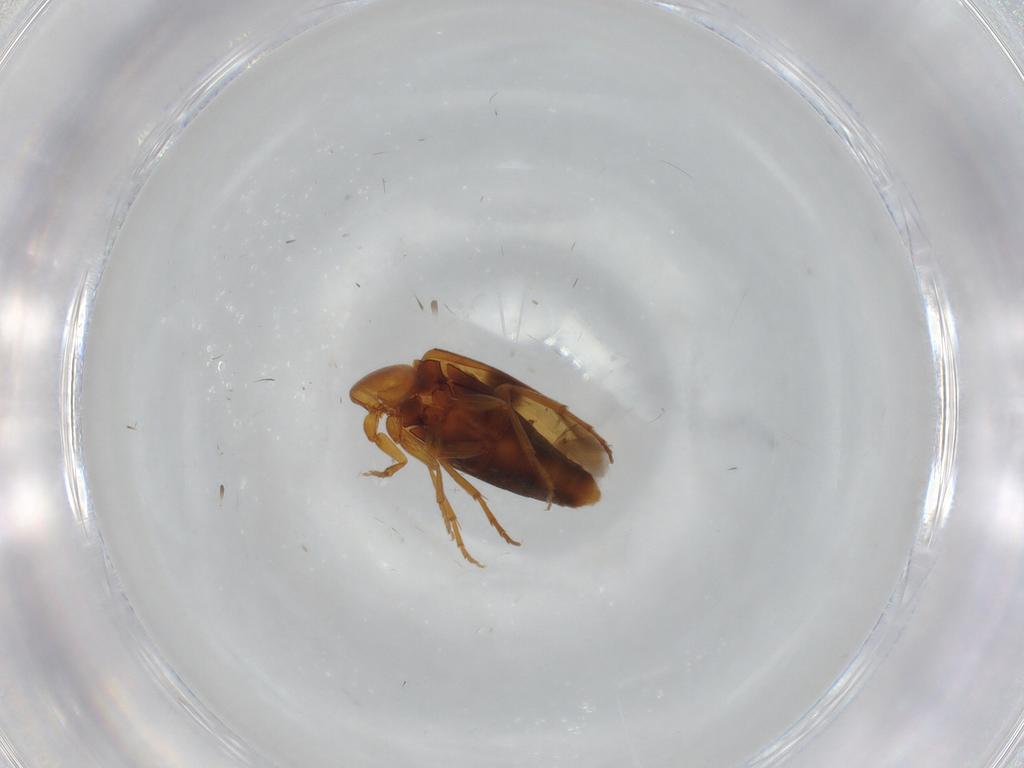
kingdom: Animalia
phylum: Arthropoda
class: Insecta
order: Coleoptera
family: Scraptiidae
